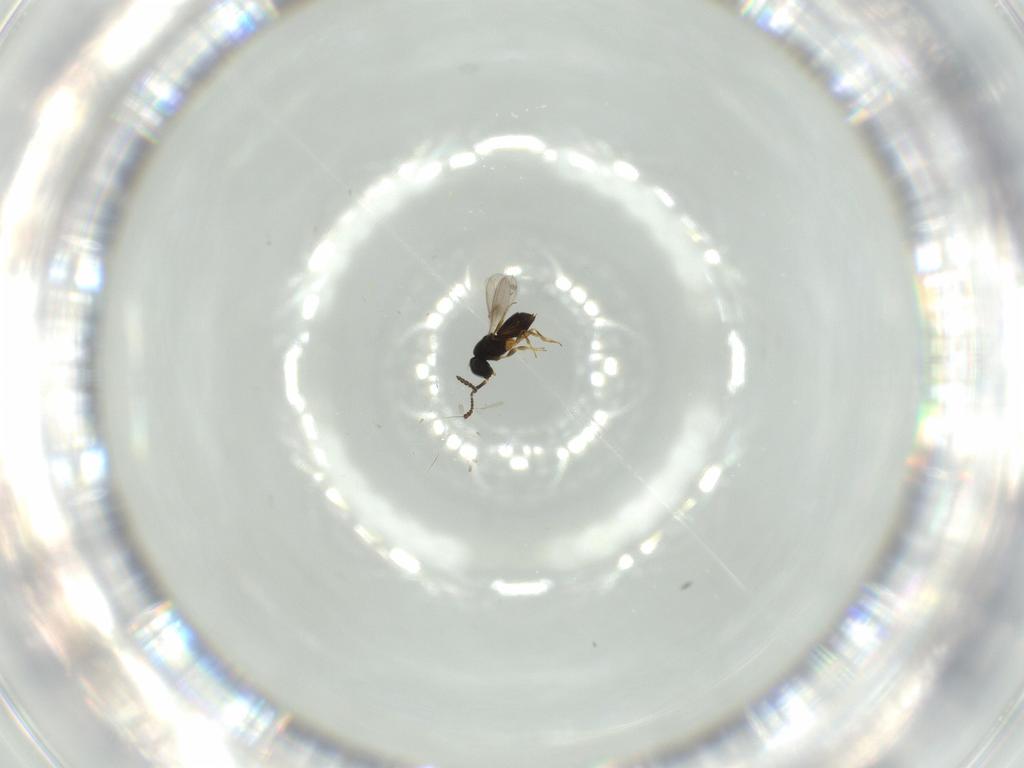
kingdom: Animalia
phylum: Arthropoda
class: Insecta
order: Hymenoptera
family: Scelionidae
